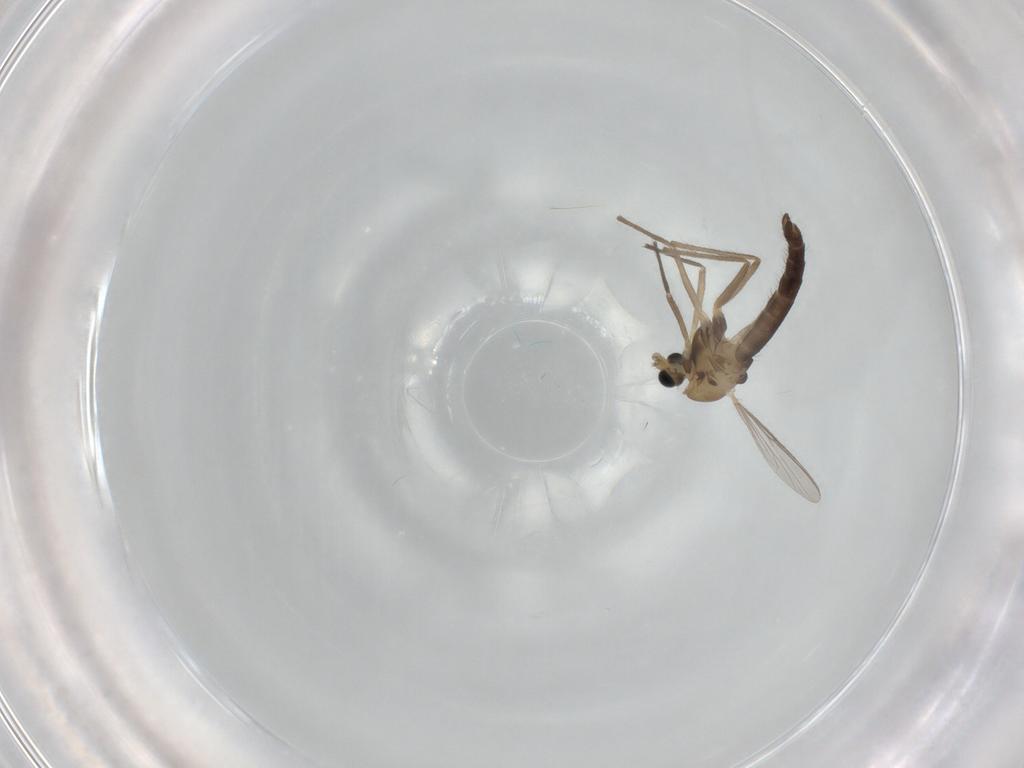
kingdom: Animalia
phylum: Arthropoda
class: Insecta
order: Diptera
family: Chironomidae
